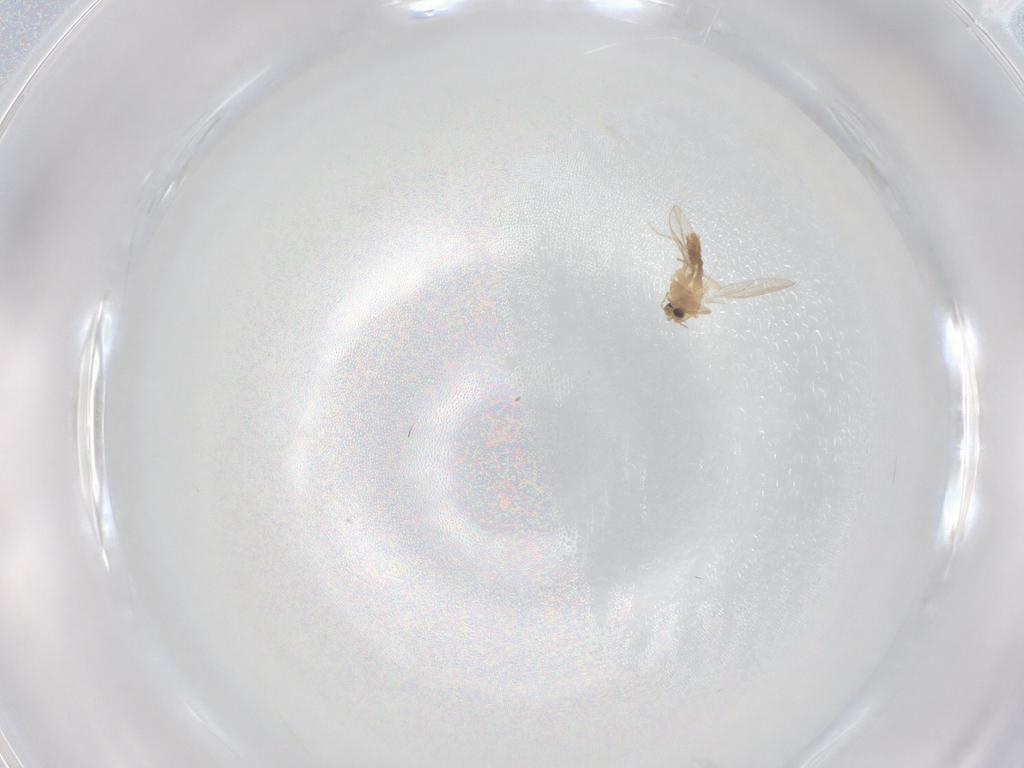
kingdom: Animalia
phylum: Arthropoda
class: Insecta
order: Diptera
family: Chironomidae
